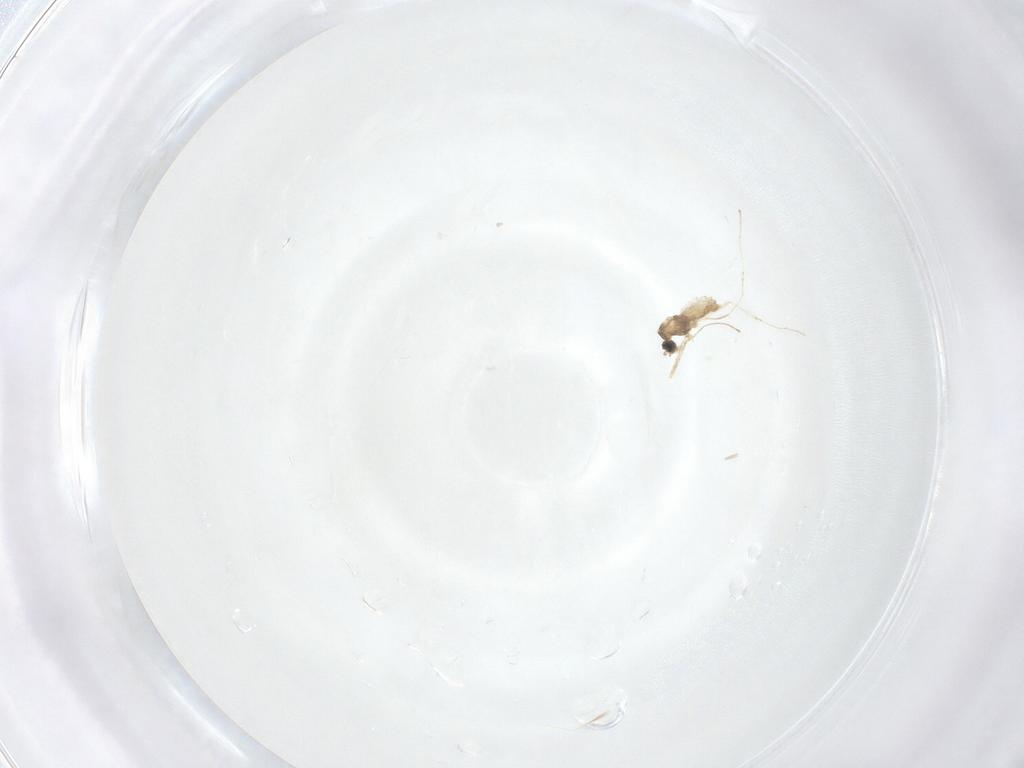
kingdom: Animalia
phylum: Arthropoda
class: Insecta
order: Diptera
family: Cecidomyiidae
